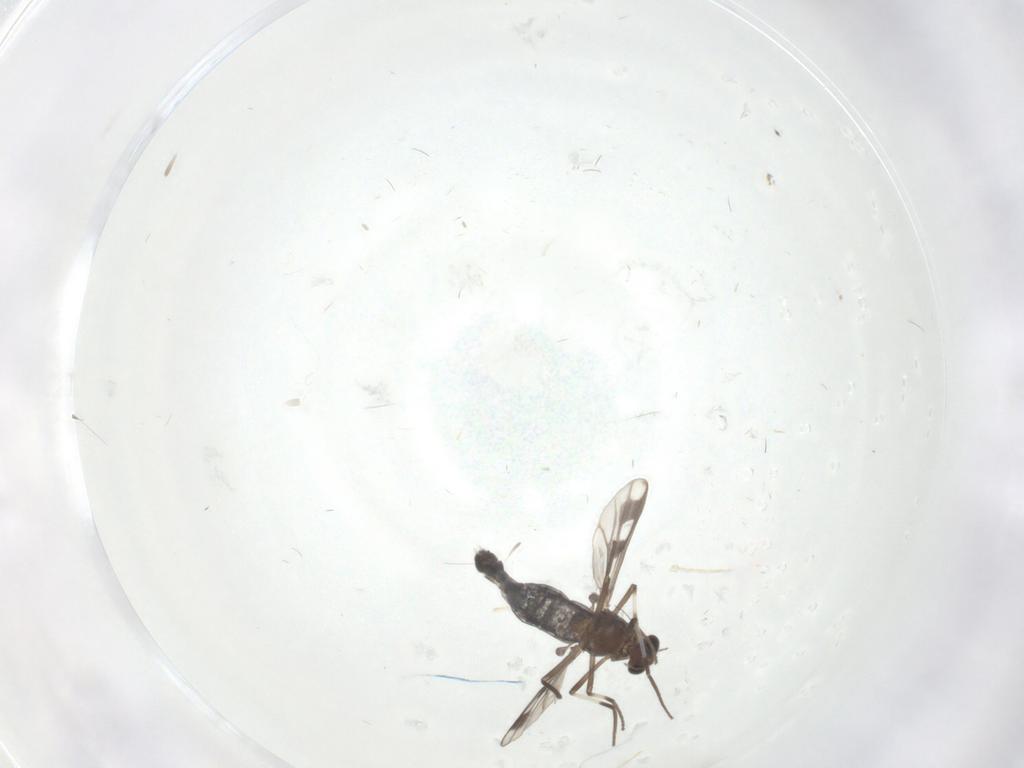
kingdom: Animalia
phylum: Arthropoda
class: Insecta
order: Diptera
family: Chironomidae
